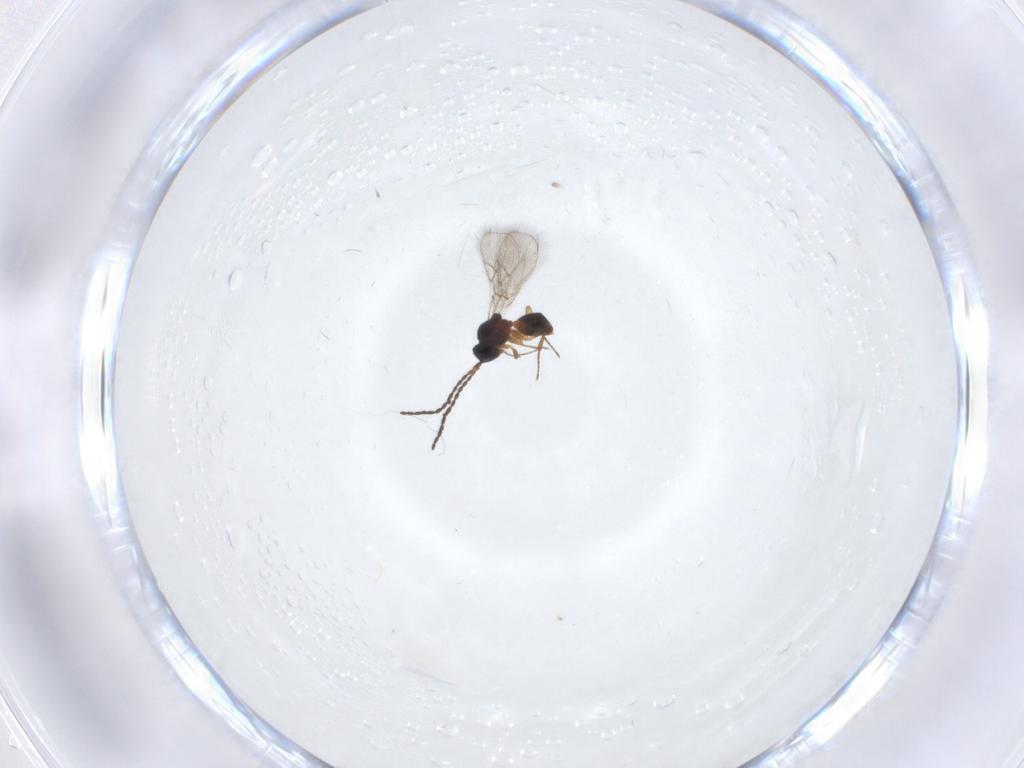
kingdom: Animalia
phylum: Arthropoda
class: Insecta
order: Hymenoptera
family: Figitidae
